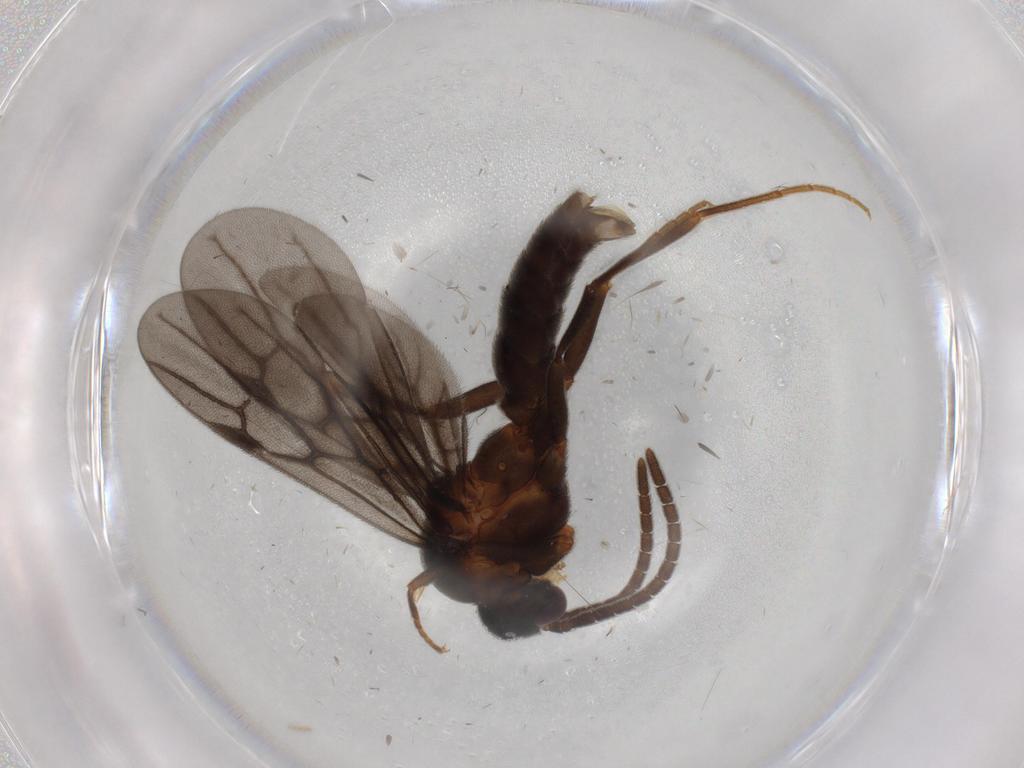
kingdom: Animalia
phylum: Arthropoda
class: Insecta
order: Hymenoptera
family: Formicidae
